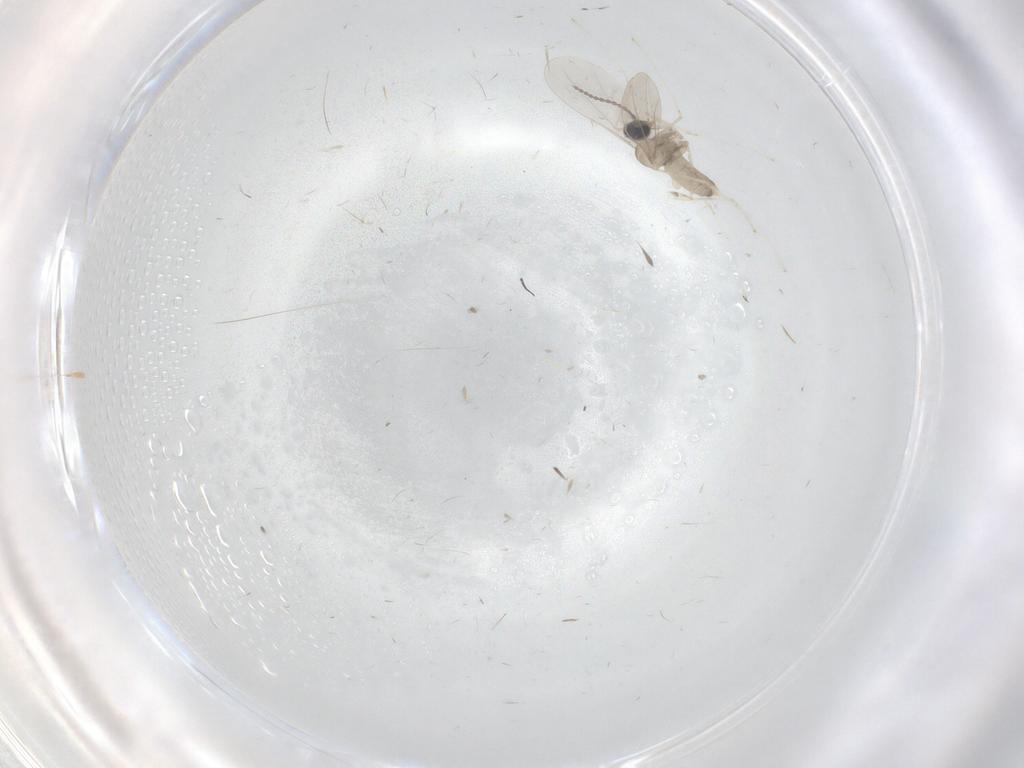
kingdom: Animalia
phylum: Arthropoda
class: Insecta
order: Diptera
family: Cecidomyiidae
